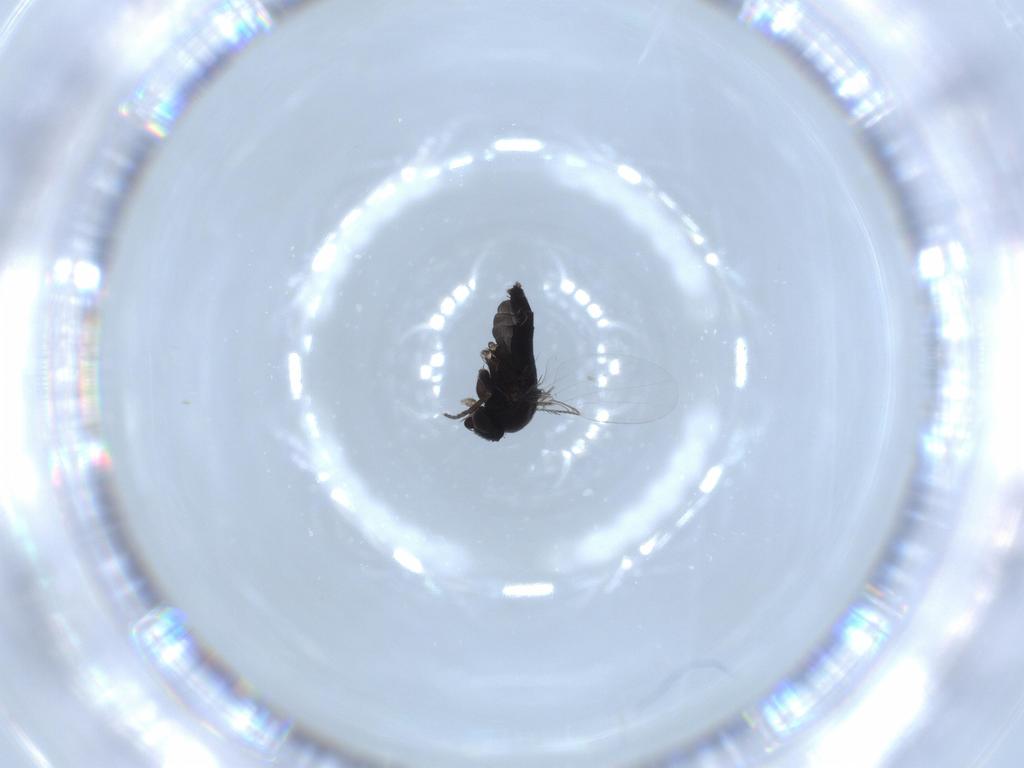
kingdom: Animalia
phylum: Arthropoda
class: Insecta
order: Diptera
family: Phoridae
